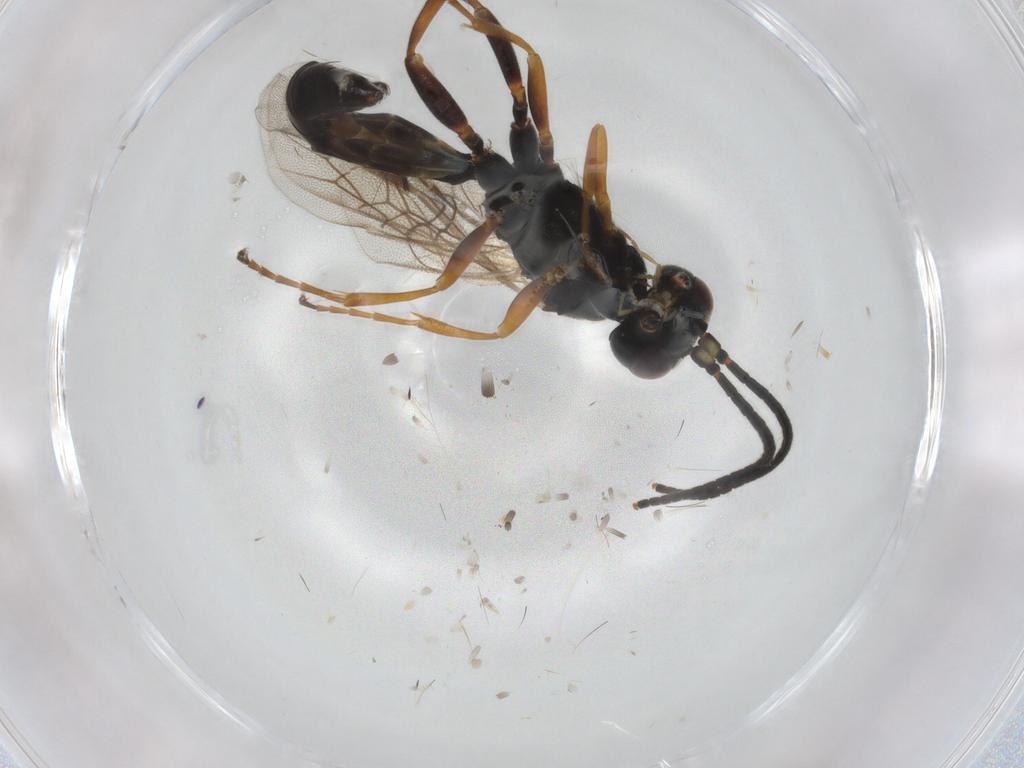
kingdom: Animalia
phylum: Arthropoda
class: Insecta
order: Hymenoptera
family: Ichneumonidae
